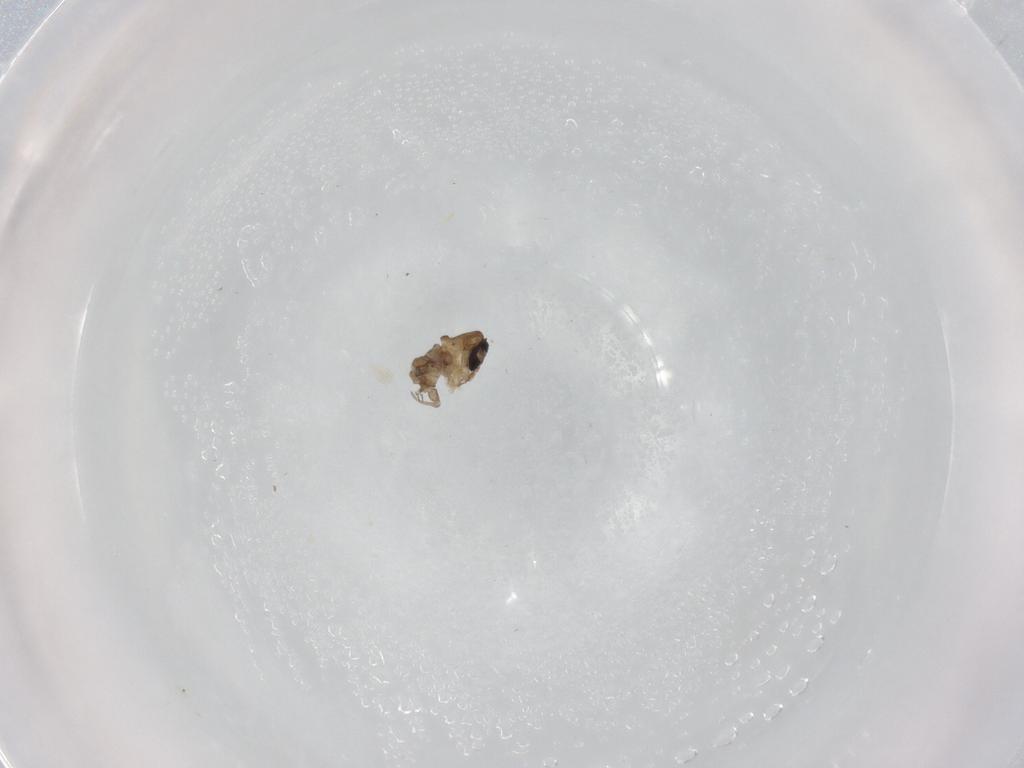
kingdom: Animalia
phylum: Arthropoda
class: Insecta
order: Diptera
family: Psychodidae
